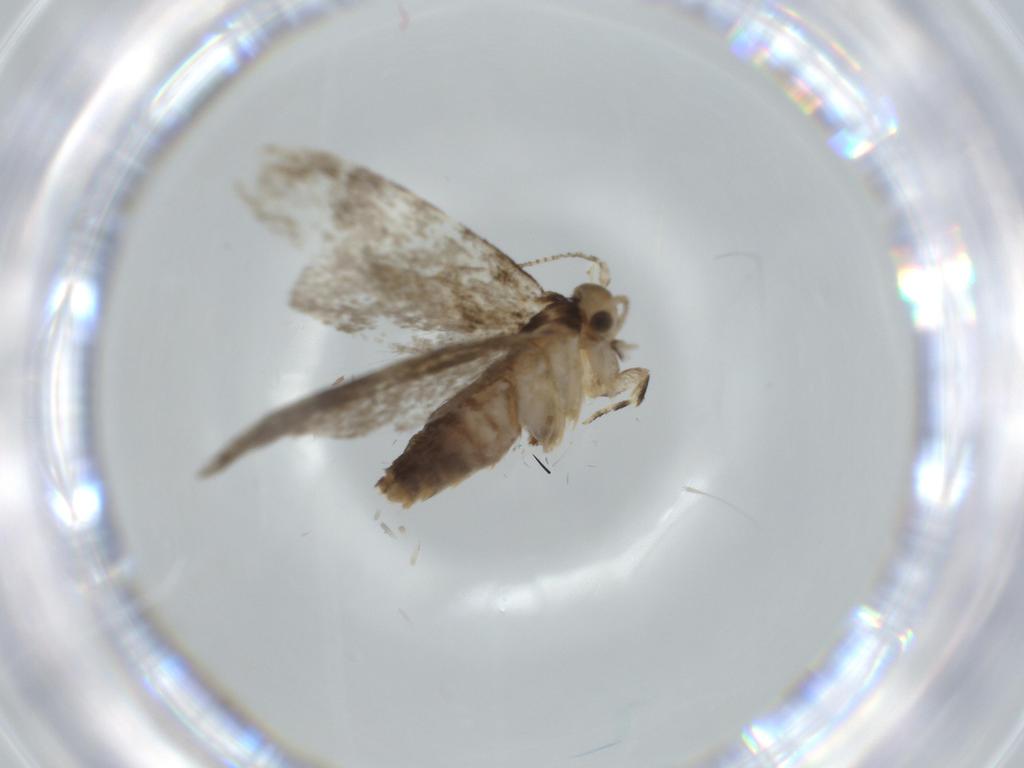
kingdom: Animalia
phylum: Arthropoda
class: Insecta
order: Lepidoptera
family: Tineidae
